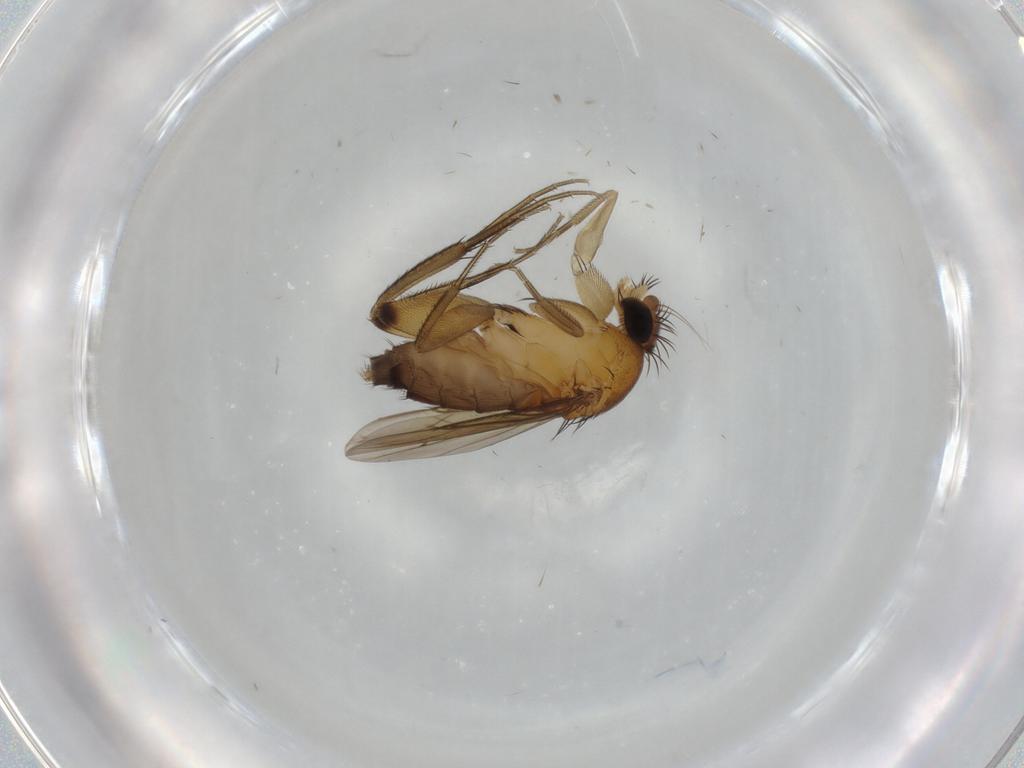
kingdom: Animalia
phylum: Arthropoda
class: Insecta
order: Diptera
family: Phoridae
